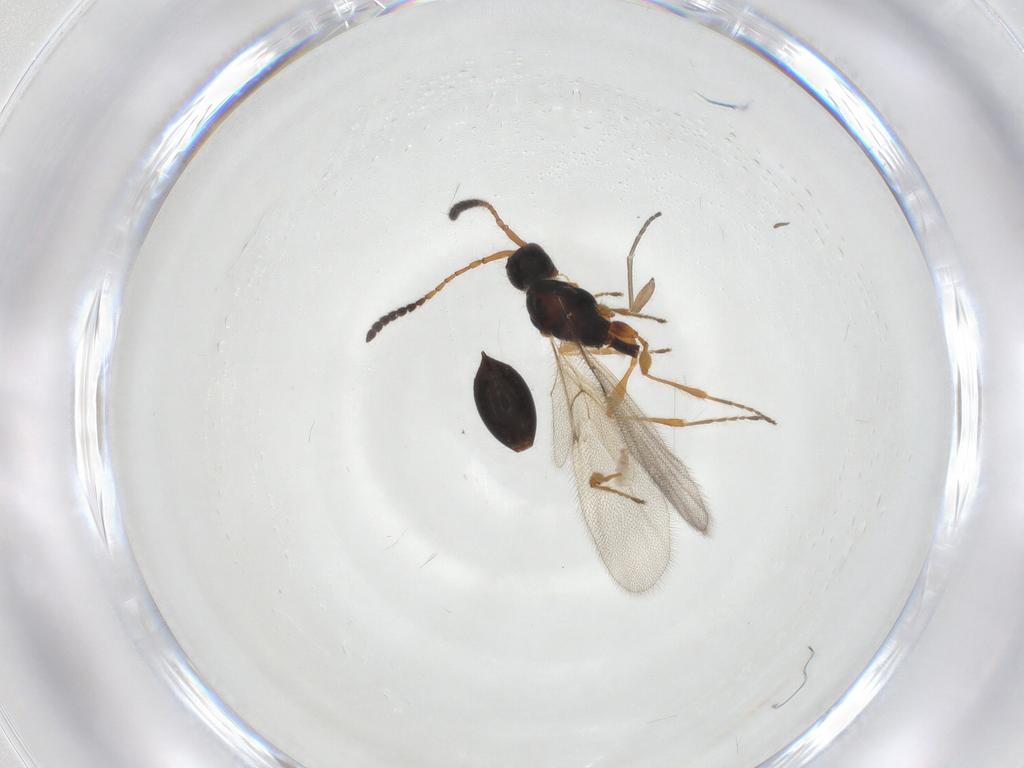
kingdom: Animalia
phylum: Arthropoda
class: Insecta
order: Hymenoptera
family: Diapriidae
